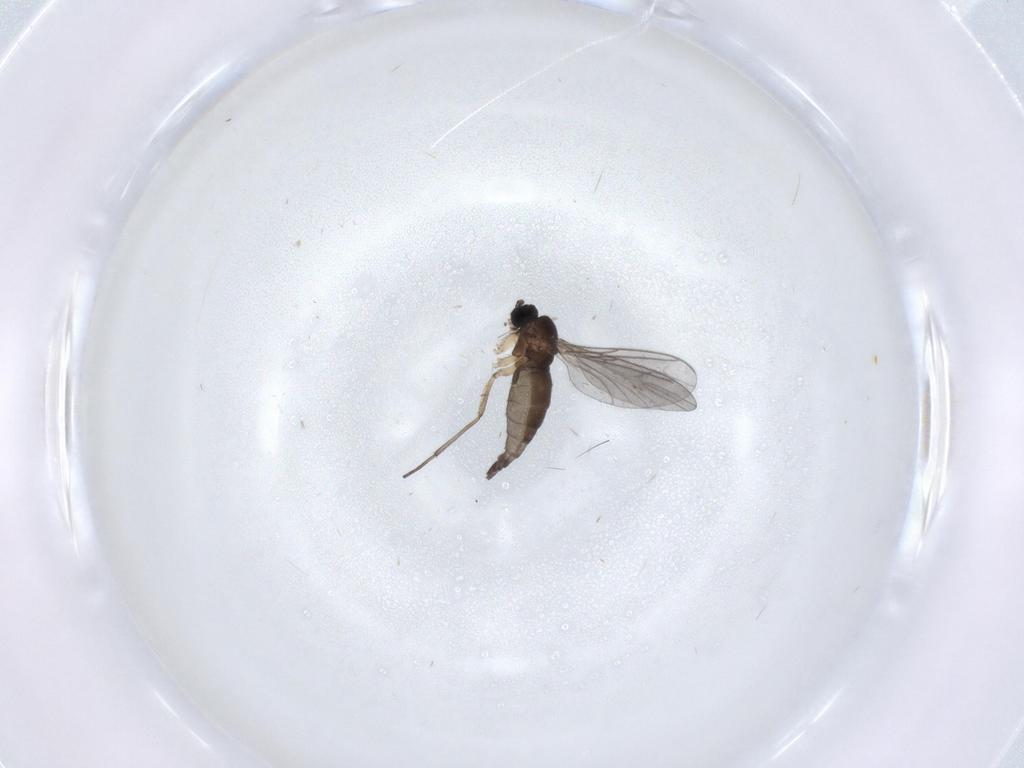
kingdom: Animalia
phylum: Arthropoda
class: Insecta
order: Diptera
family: Sciaridae
